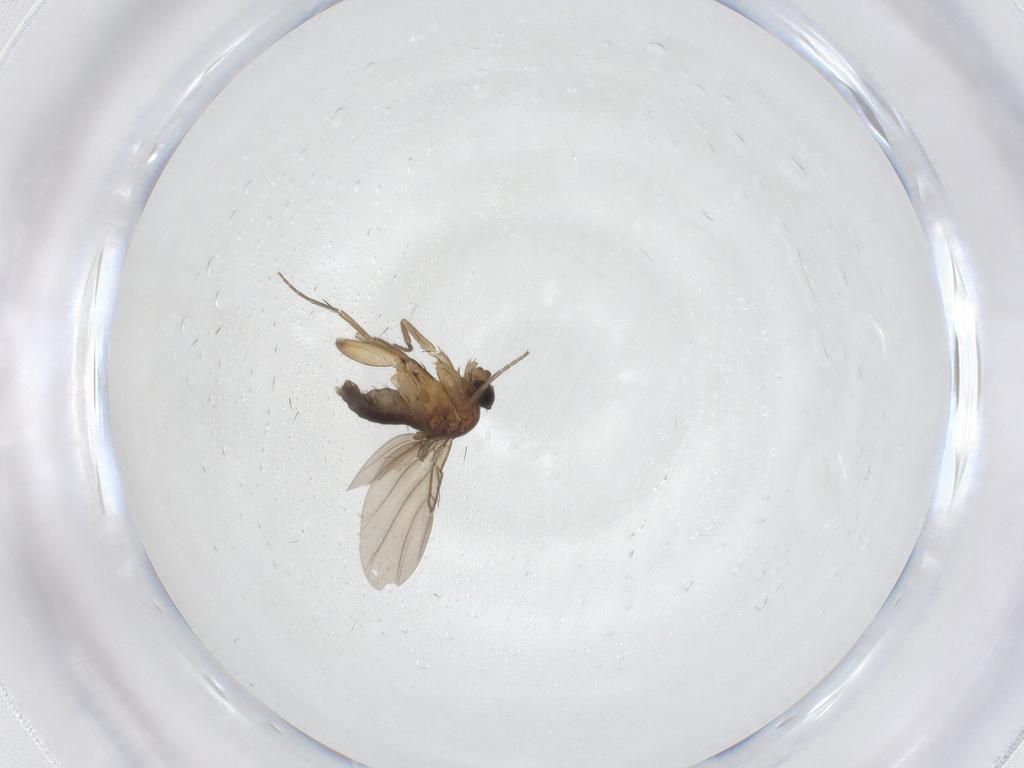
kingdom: Animalia
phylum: Arthropoda
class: Insecta
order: Diptera
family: Phoridae
